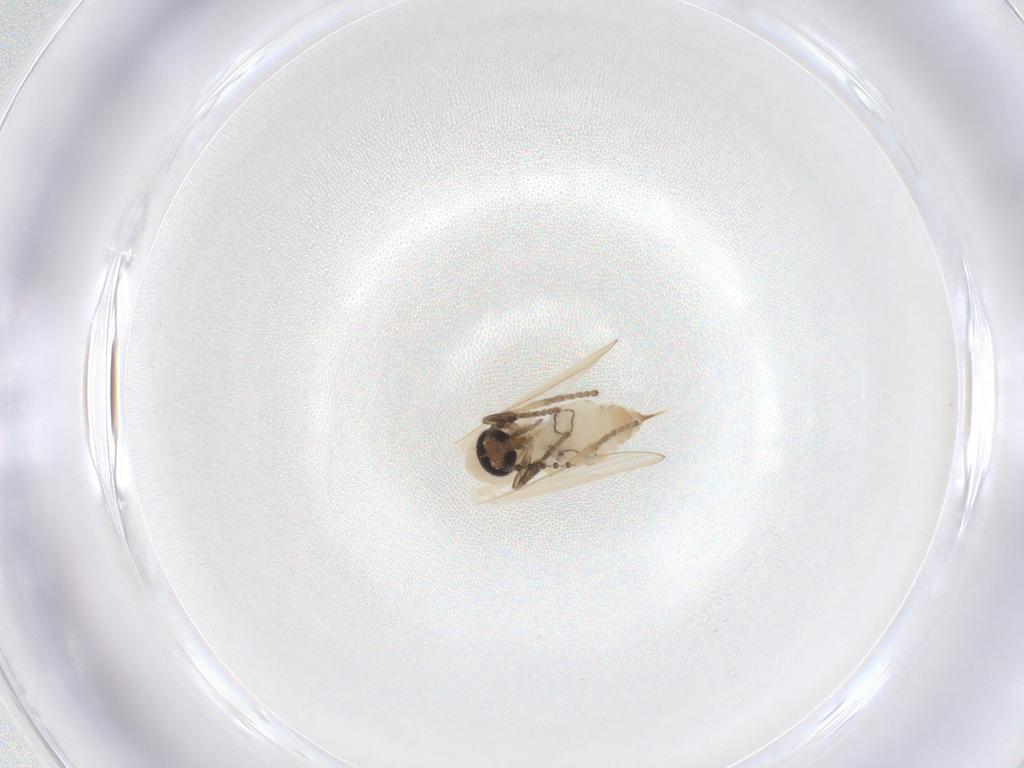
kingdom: Animalia
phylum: Arthropoda
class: Insecta
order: Diptera
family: Psychodidae
